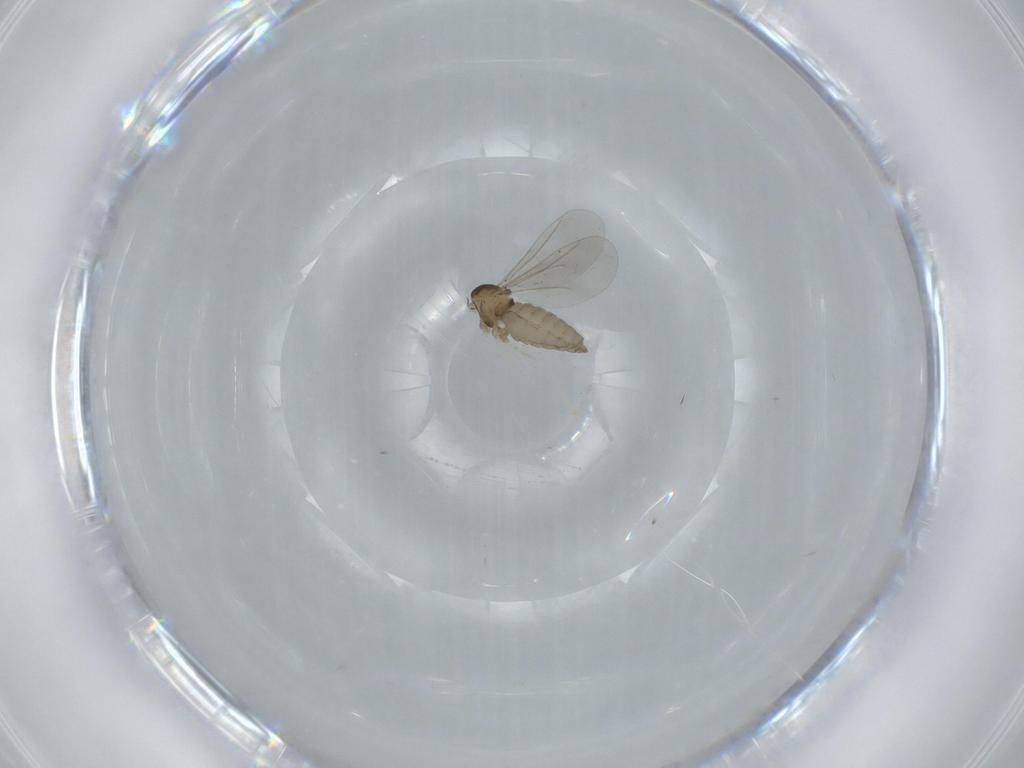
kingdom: Animalia
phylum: Arthropoda
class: Insecta
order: Diptera
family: Cecidomyiidae
